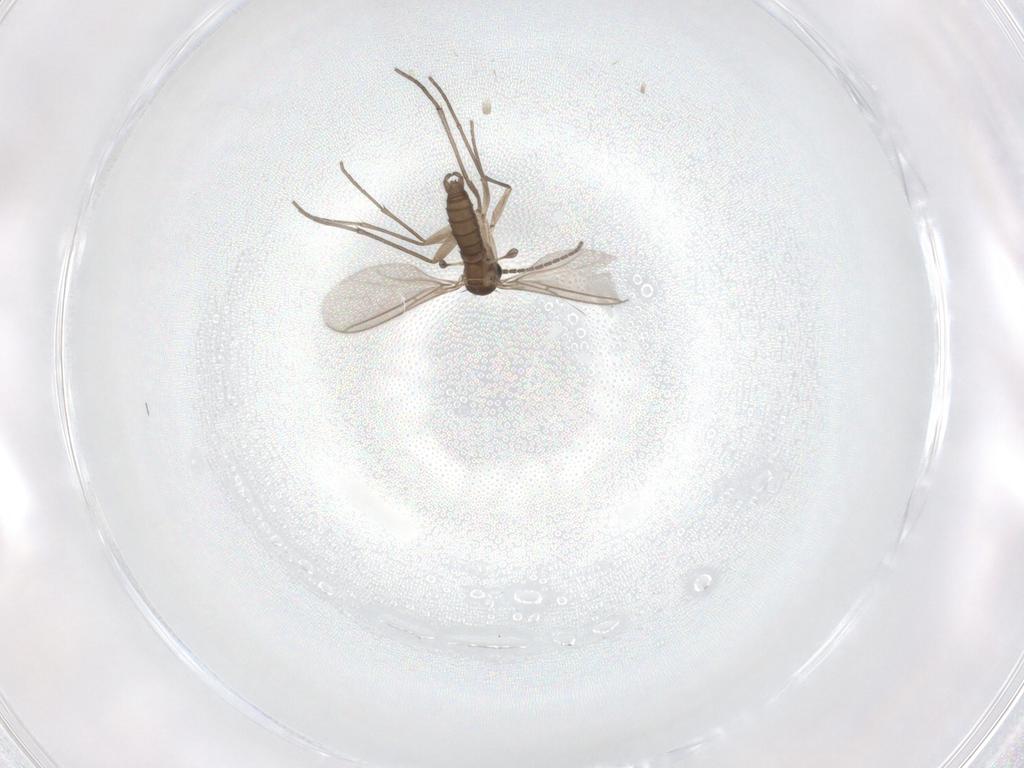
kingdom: Animalia
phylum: Arthropoda
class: Insecta
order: Diptera
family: Sciaridae
